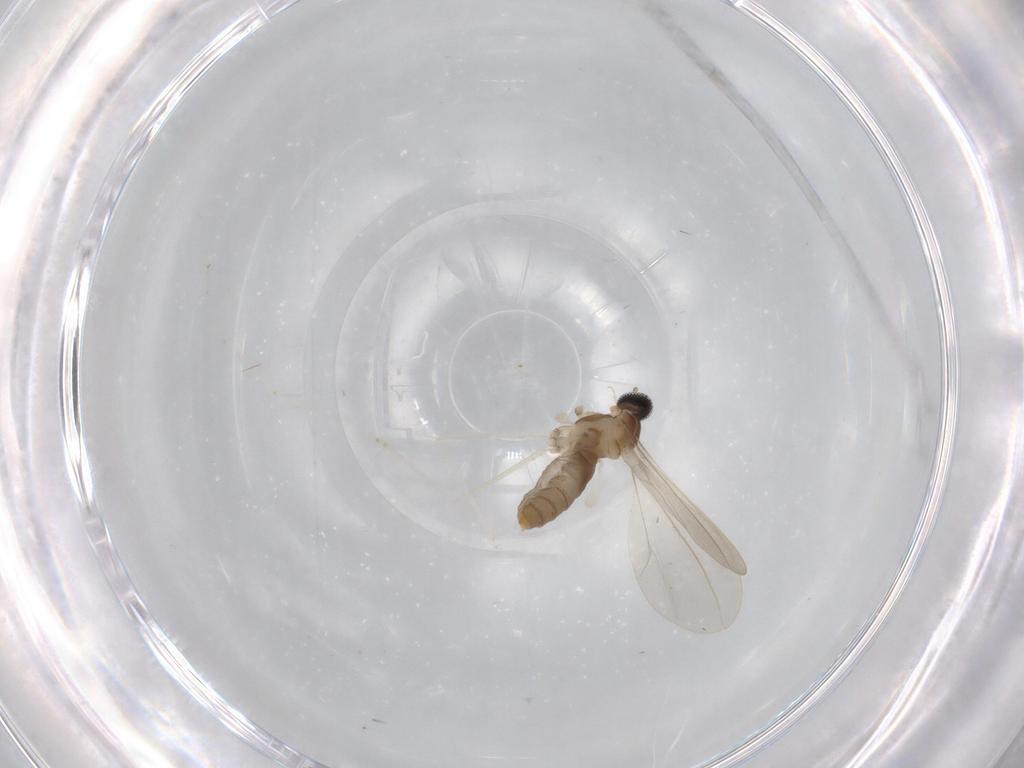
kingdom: Animalia
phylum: Arthropoda
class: Insecta
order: Diptera
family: Cecidomyiidae
